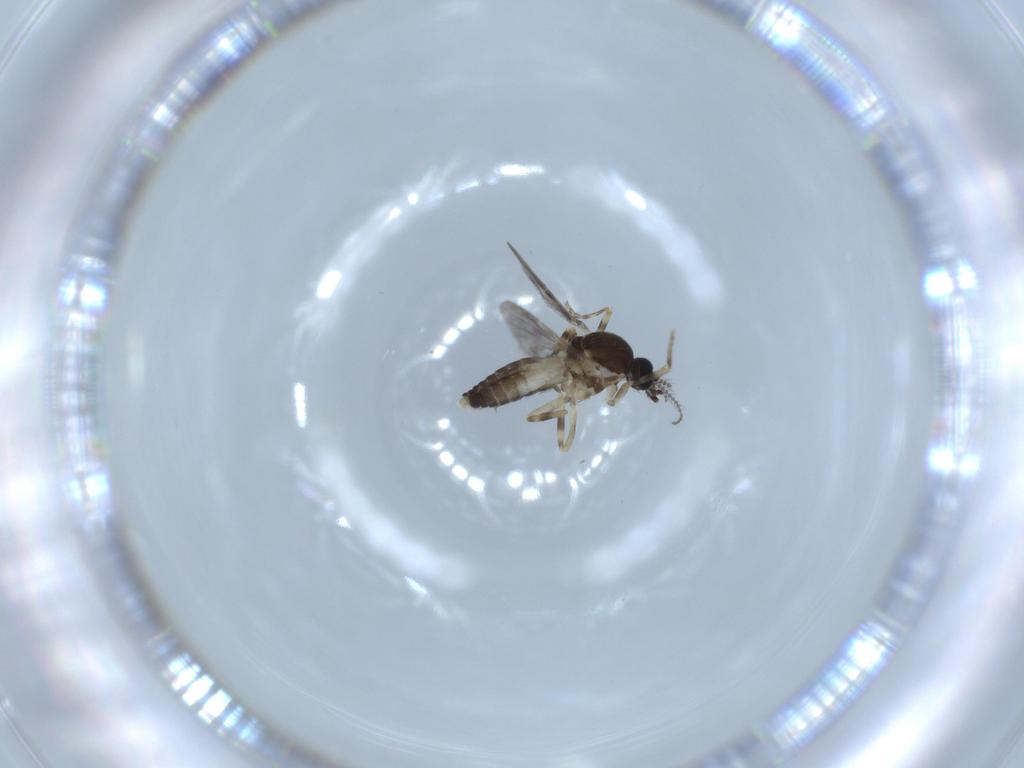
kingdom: Animalia
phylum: Arthropoda
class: Insecta
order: Diptera
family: Ceratopogonidae
